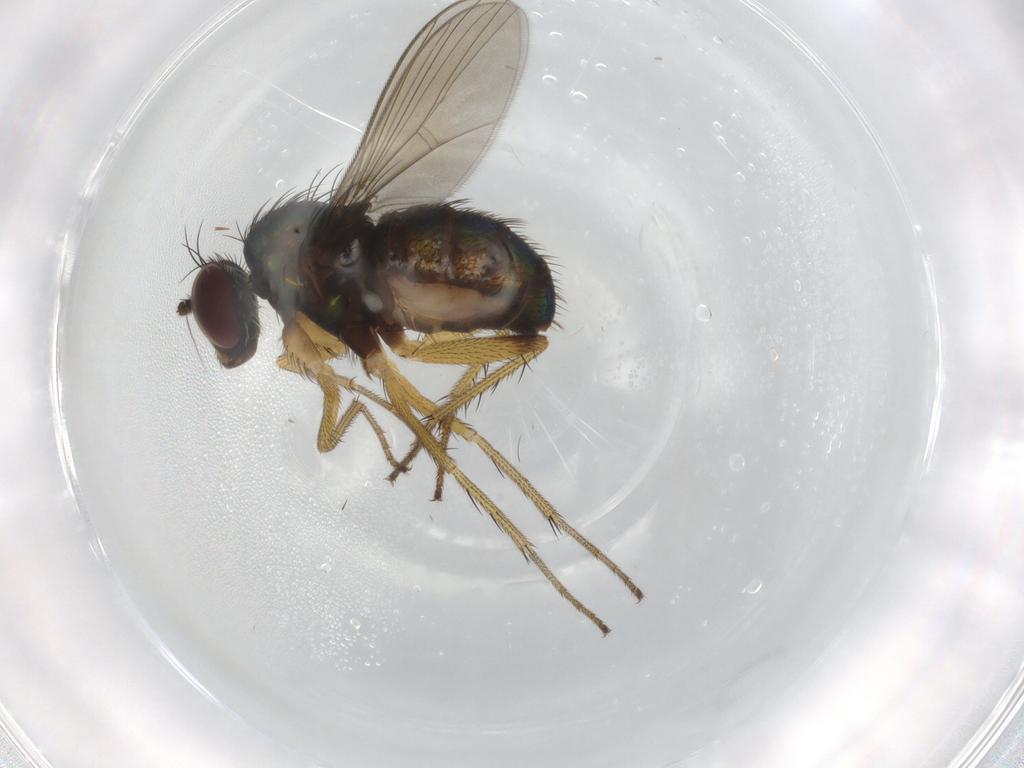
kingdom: Animalia
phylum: Arthropoda
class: Insecta
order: Diptera
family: Dolichopodidae
